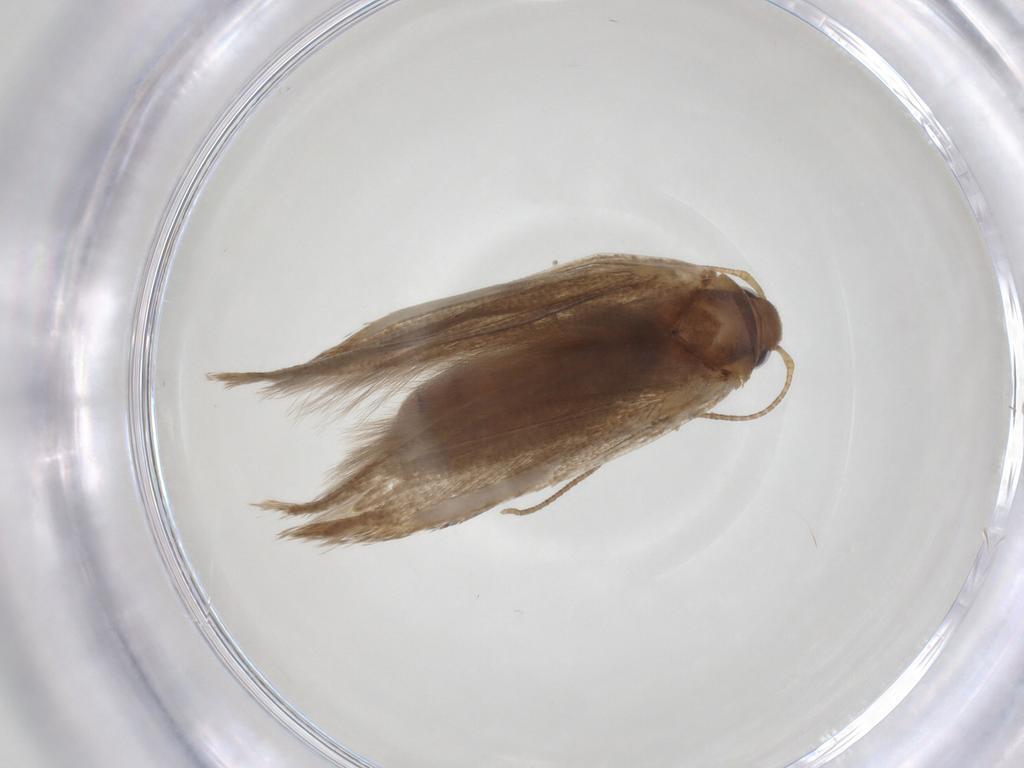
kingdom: Animalia
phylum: Arthropoda
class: Insecta
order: Lepidoptera
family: Blastobasidae
